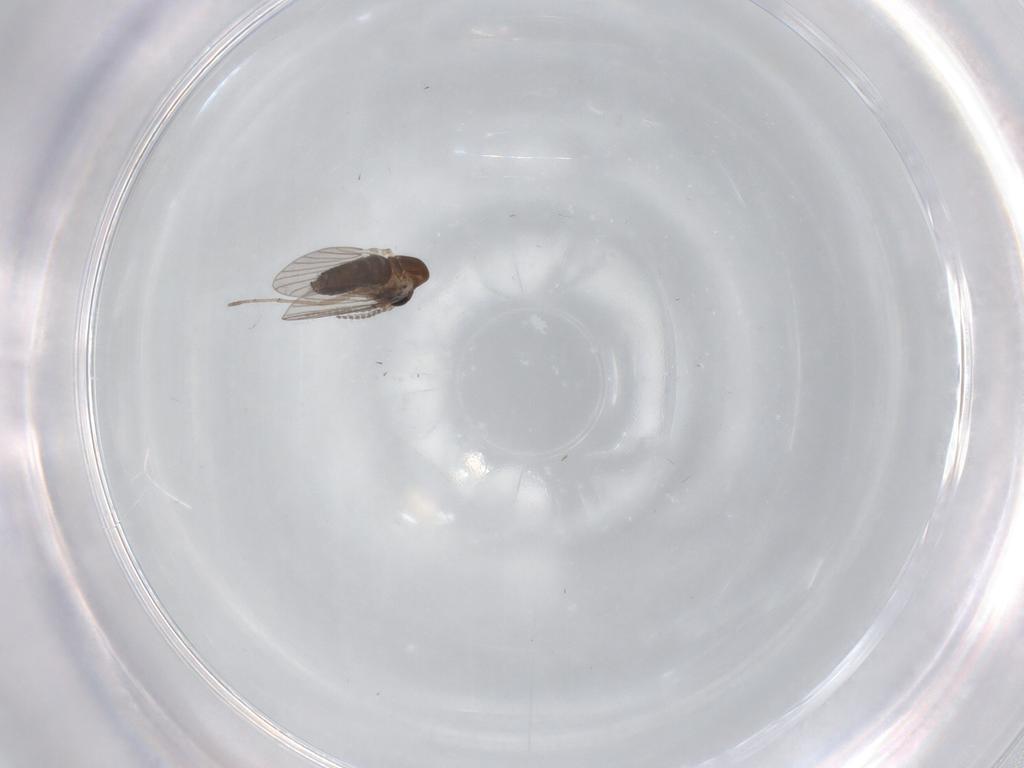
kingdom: Animalia
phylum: Arthropoda
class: Insecta
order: Diptera
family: Cecidomyiidae
